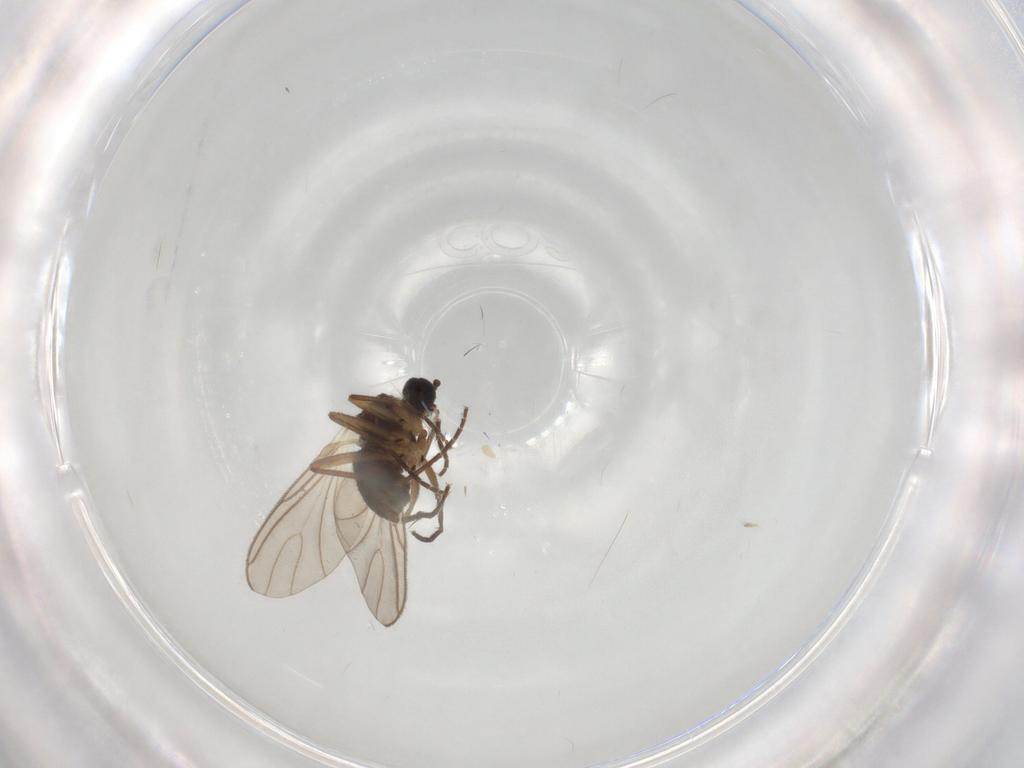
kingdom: Animalia
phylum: Arthropoda
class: Insecta
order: Diptera
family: Sciaridae
